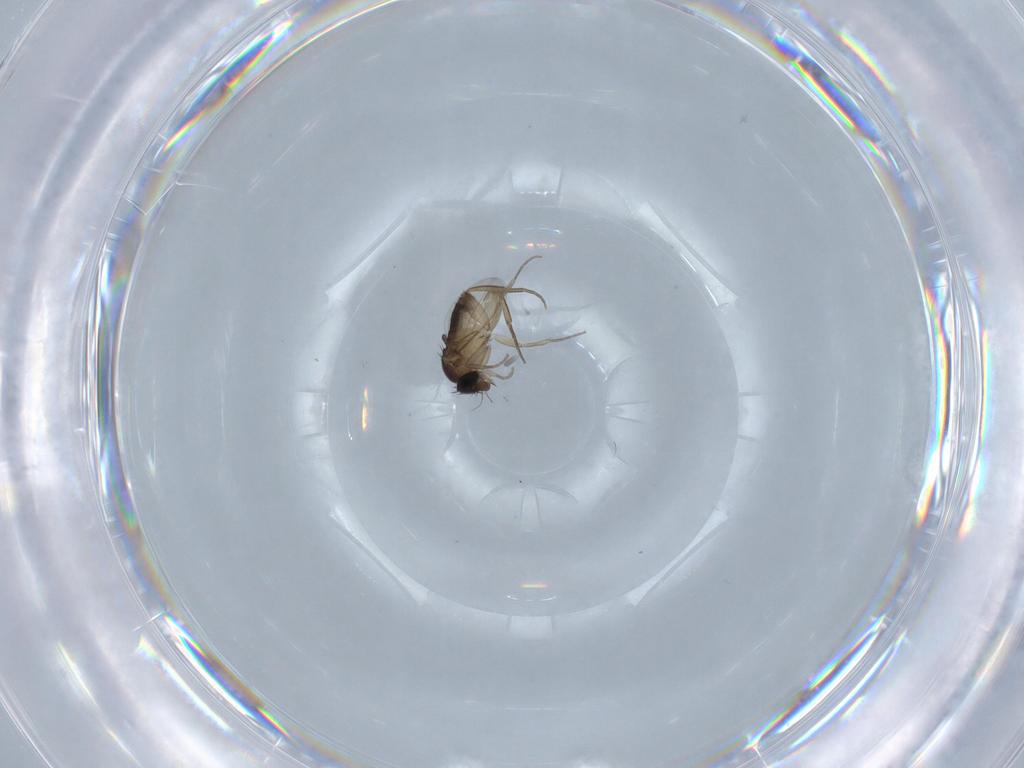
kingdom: Animalia
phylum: Arthropoda
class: Insecta
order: Diptera
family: Phoridae
